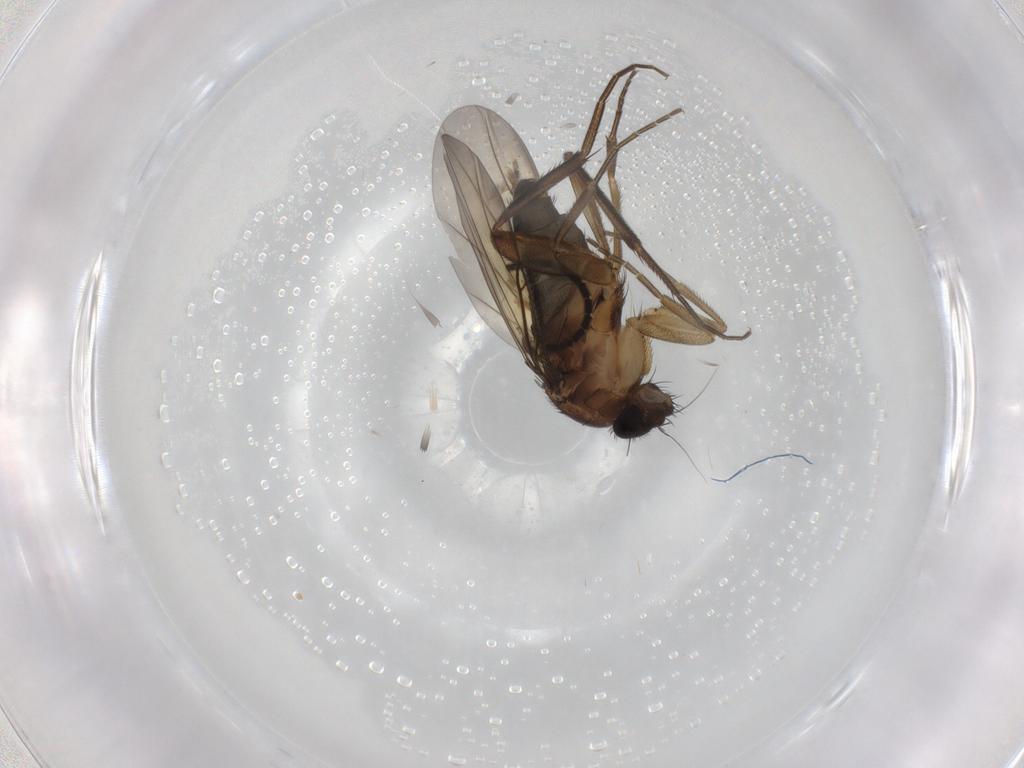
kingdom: Animalia
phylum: Arthropoda
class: Insecta
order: Diptera
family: Phoridae
